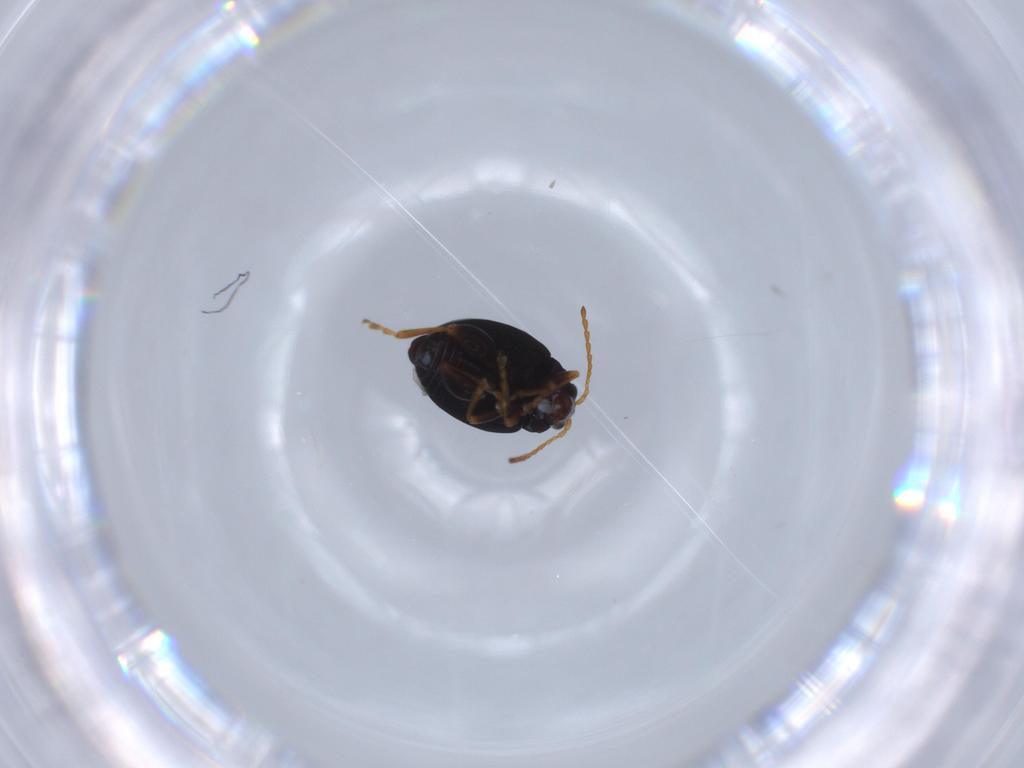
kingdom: Animalia
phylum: Arthropoda
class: Insecta
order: Coleoptera
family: Chrysomelidae
